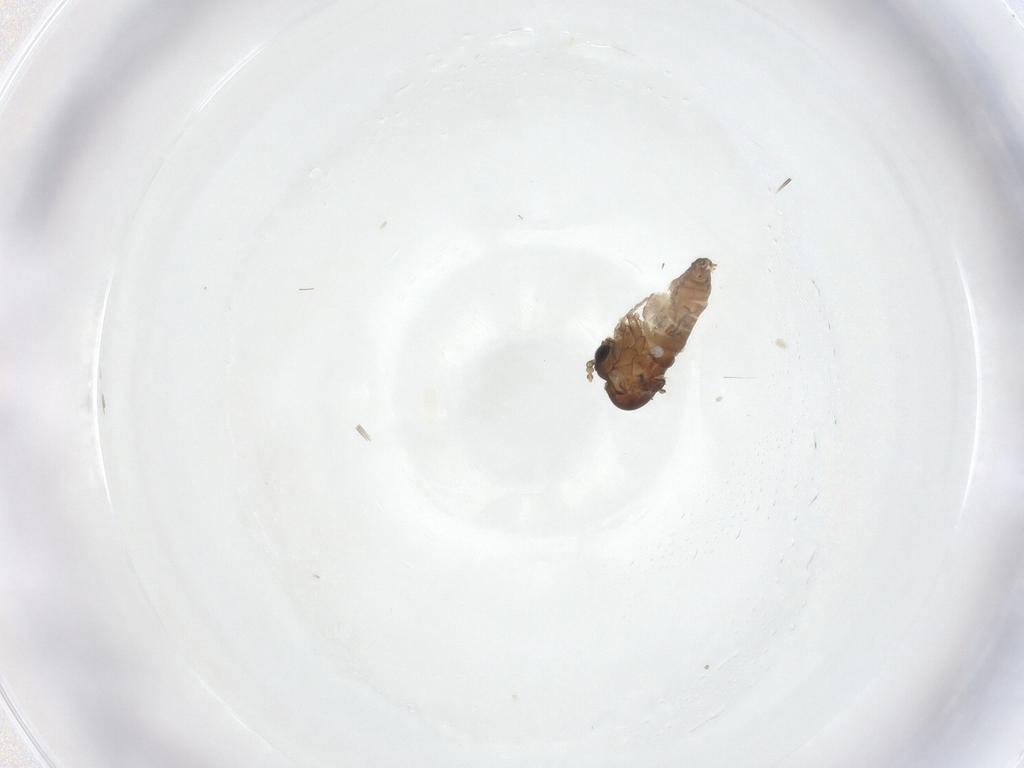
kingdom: Animalia
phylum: Arthropoda
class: Insecta
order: Diptera
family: Psychodidae
